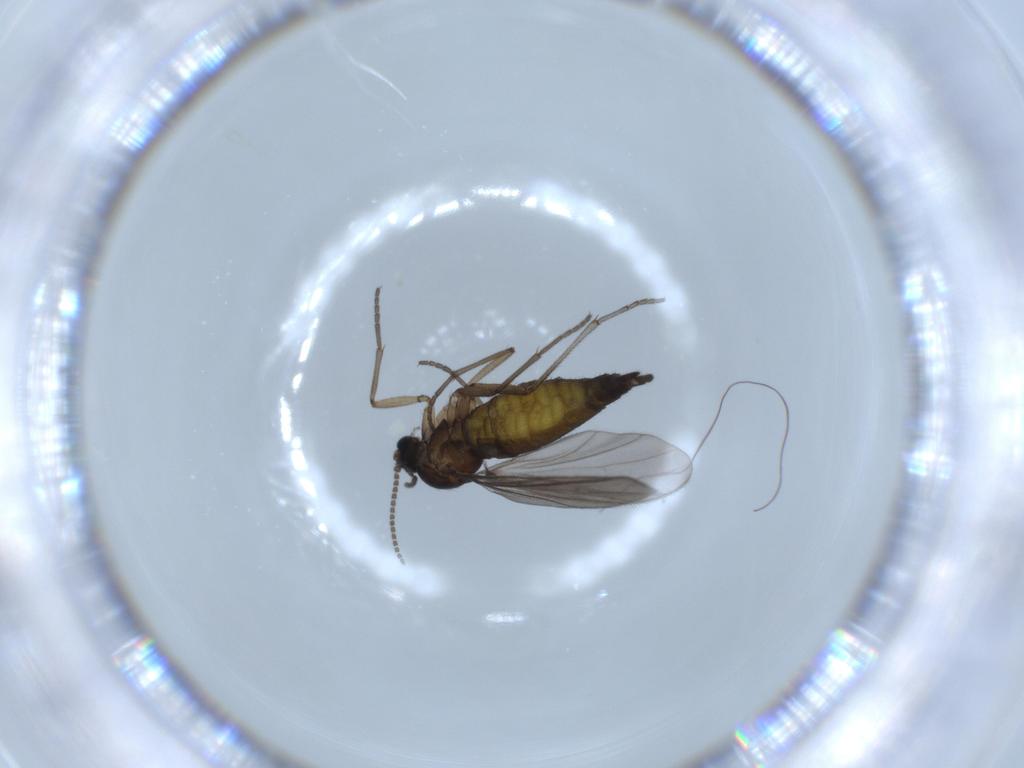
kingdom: Animalia
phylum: Arthropoda
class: Insecta
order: Diptera
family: Sciaridae
